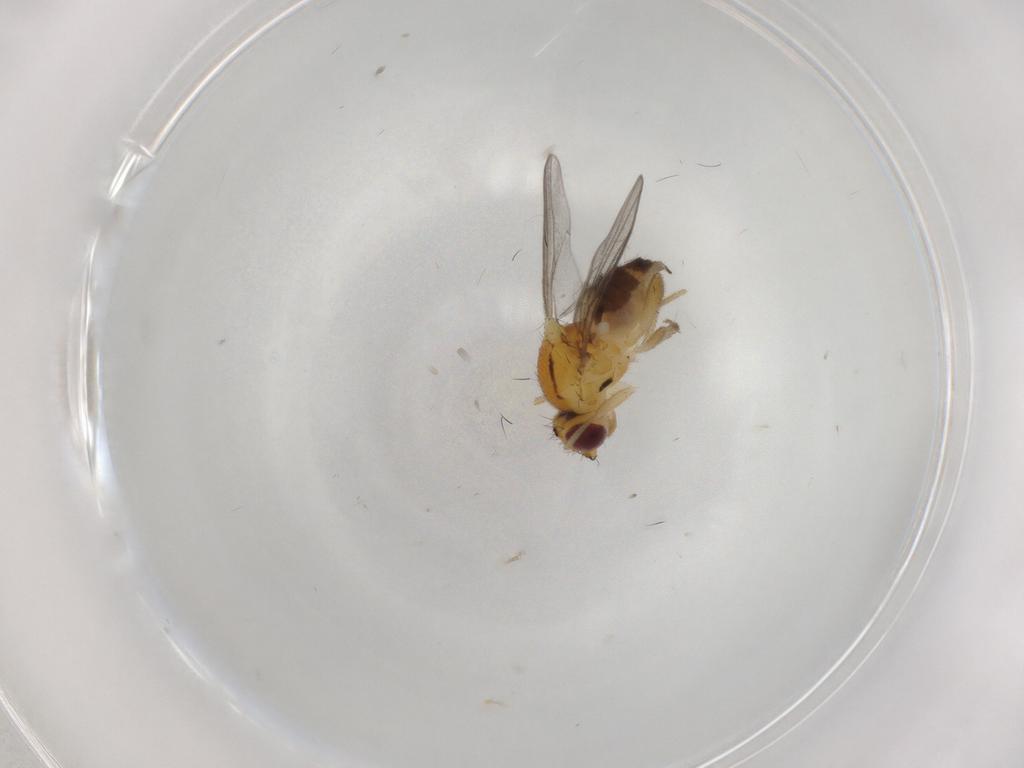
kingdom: Animalia
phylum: Arthropoda
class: Insecta
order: Diptera
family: Chloropidae
